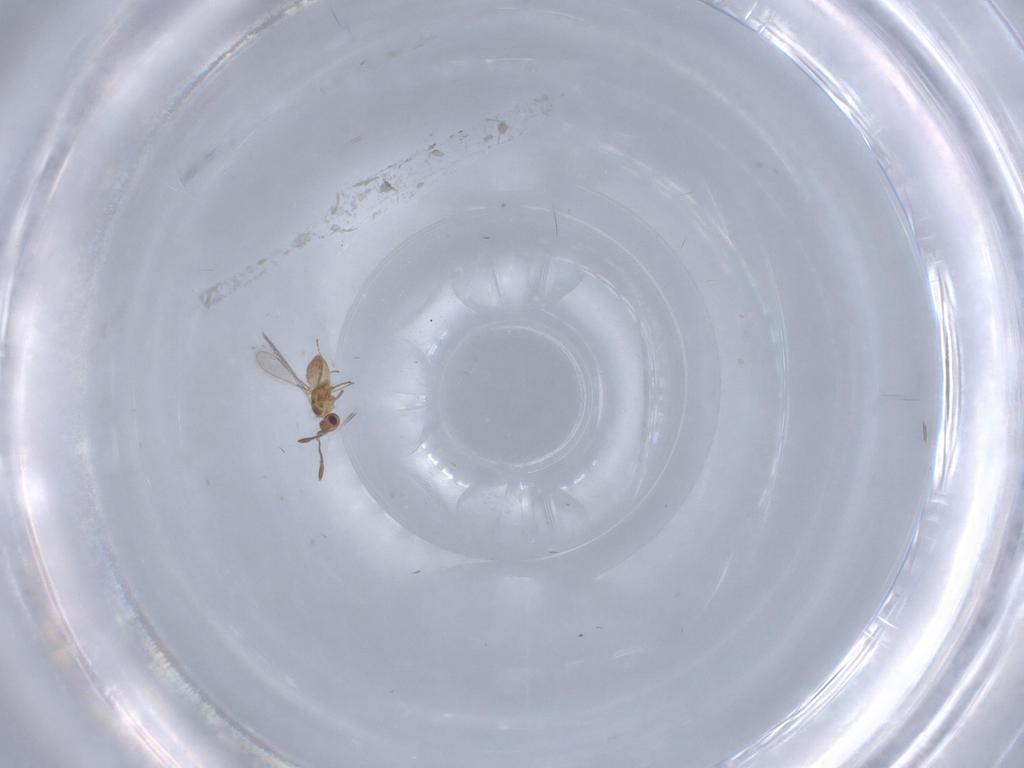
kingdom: Animalia
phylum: Arthropoda
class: Insecta
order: Hymenoptera
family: Mymaridae
